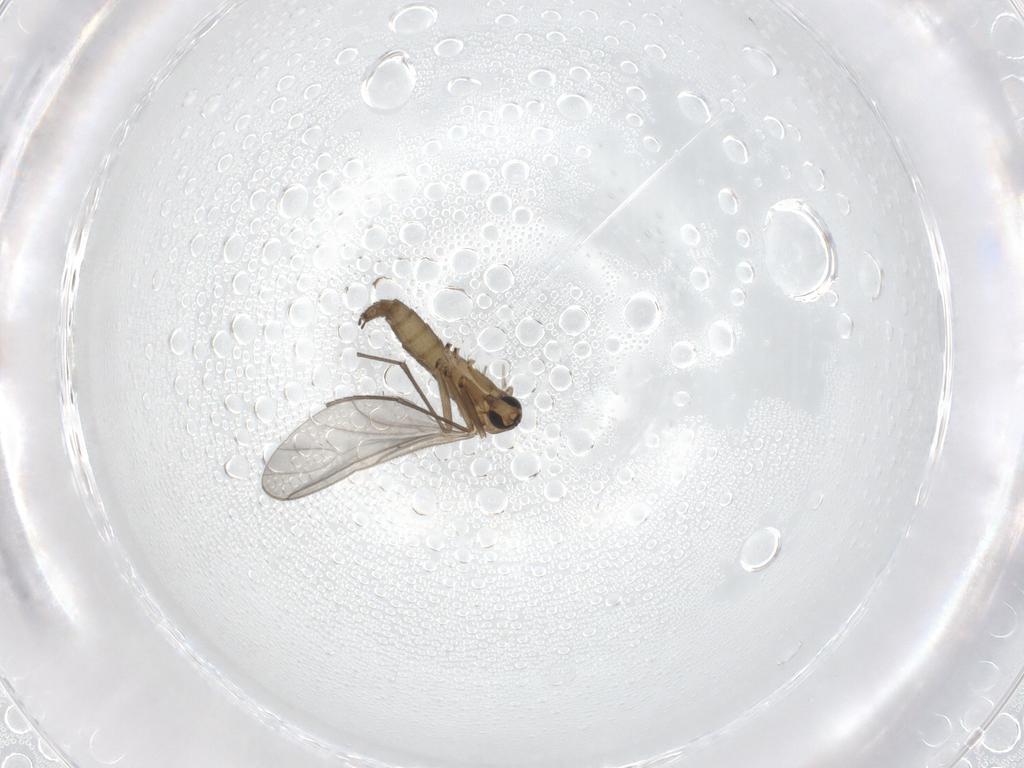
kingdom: Animalia
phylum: Arthropoda
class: Insecta
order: Diptera
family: Sciaridae
